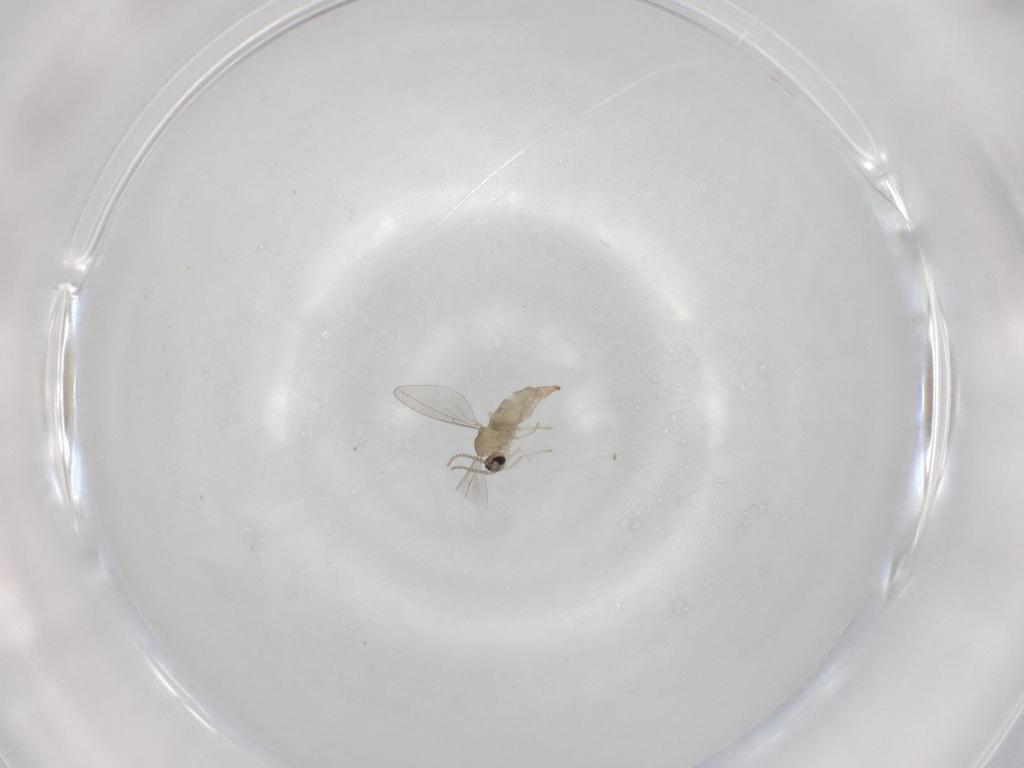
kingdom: Animalia
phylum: Arthropoda
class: Insecta
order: Diptera
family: Cecidomyiidae
